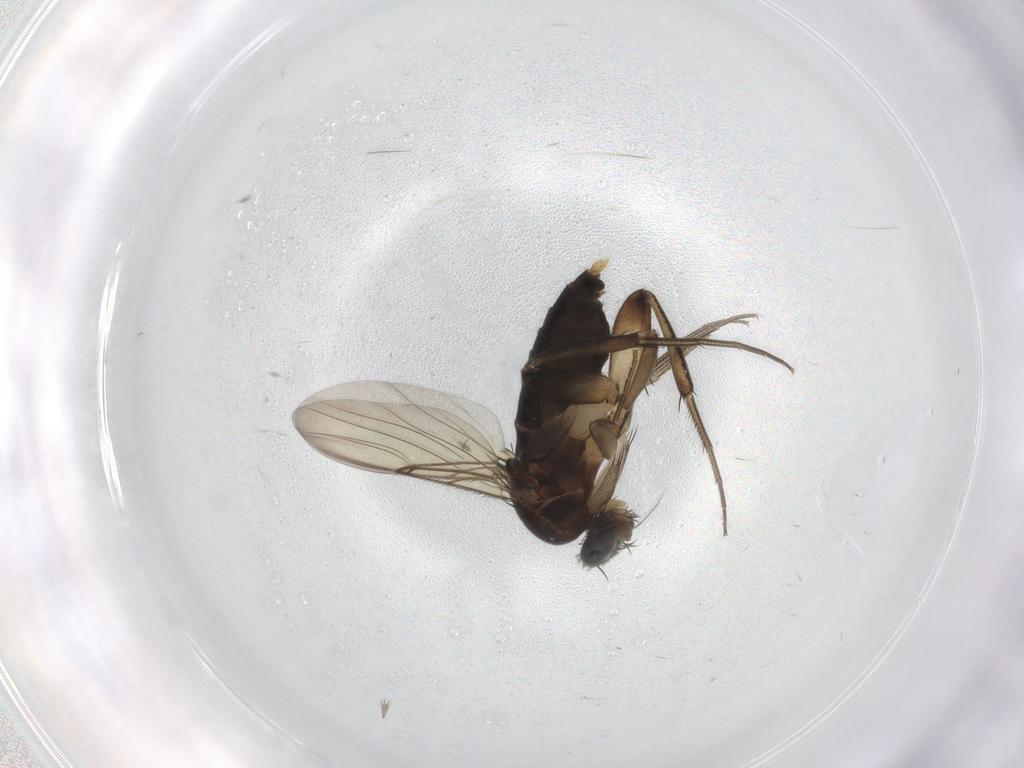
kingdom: Animalia
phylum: Arthropoda
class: Insecta
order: Diptera
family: Phoridae
